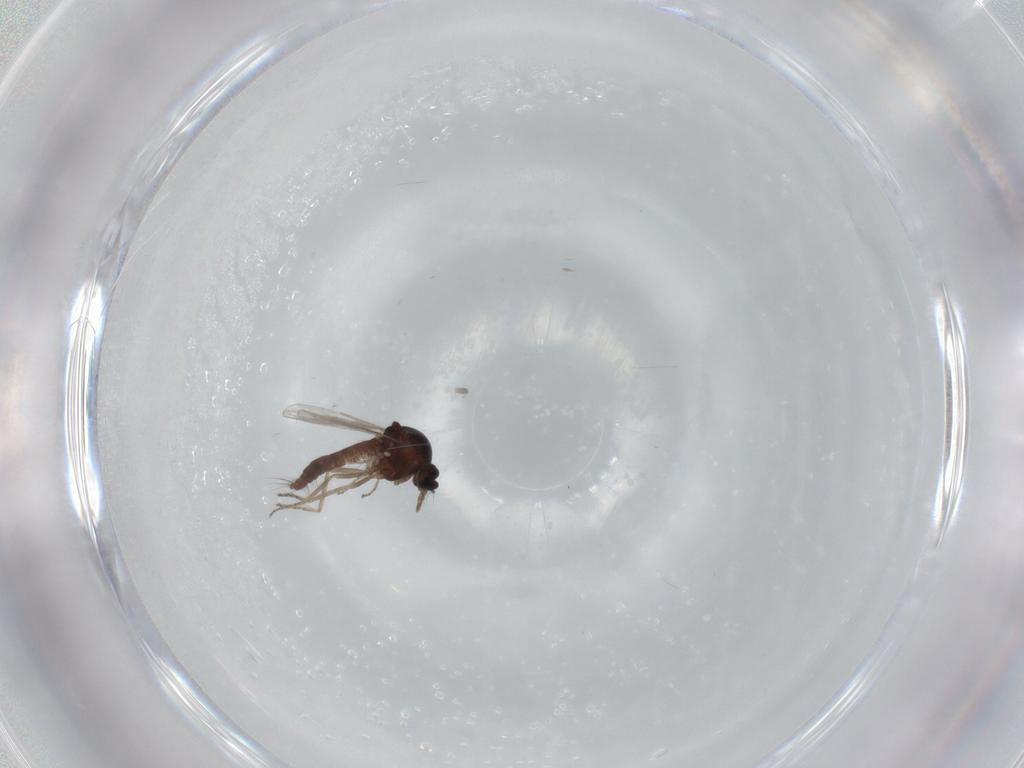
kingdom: Animalia
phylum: Arthropoda
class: Insecta
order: Diptera
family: Ceratopogonidae
